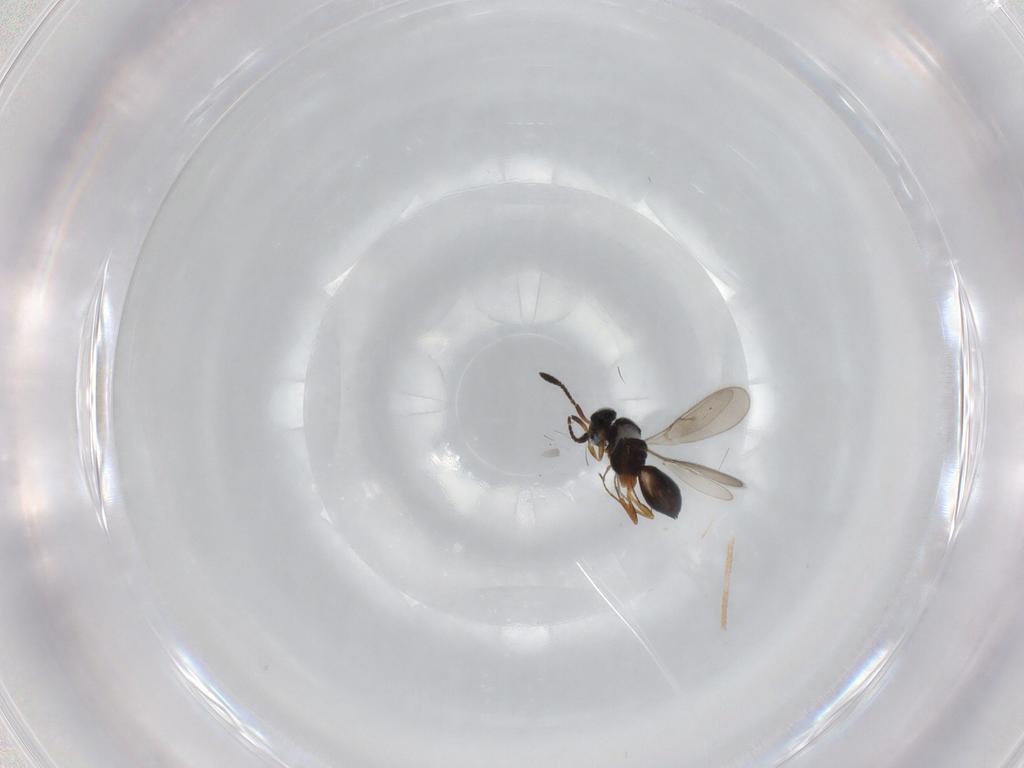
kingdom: Animalia
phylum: Arthropoda
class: Insecta
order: Hymenoptera
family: Scelionidae
